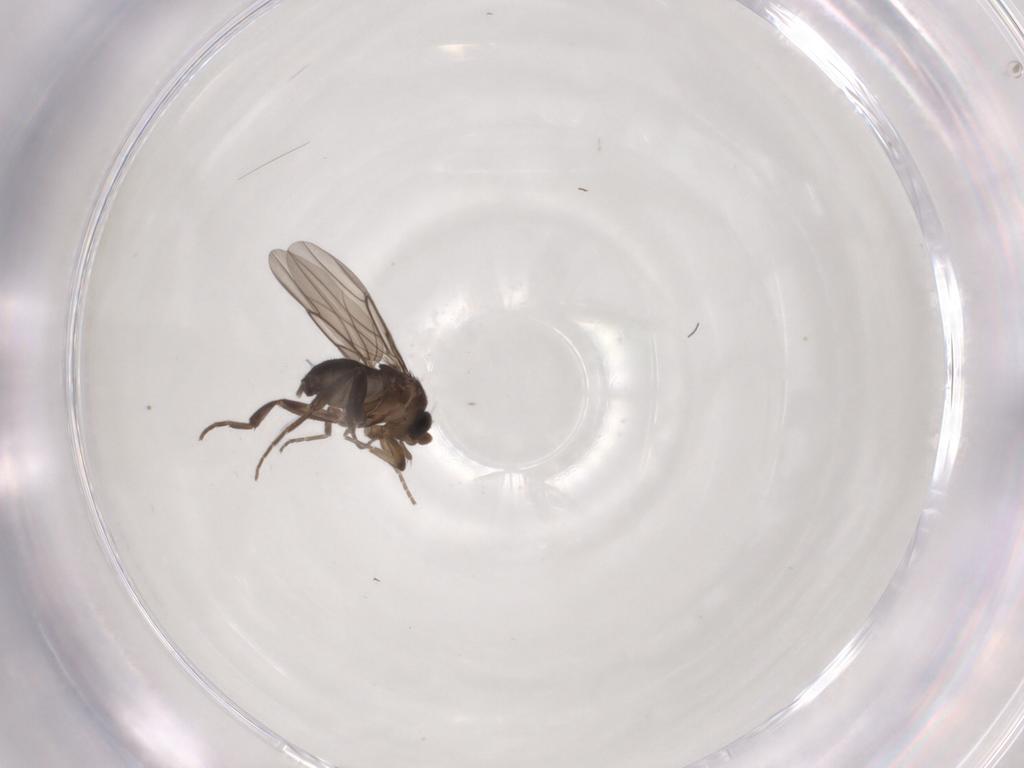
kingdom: Animalia
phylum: Arthropoda
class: Insecta
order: Diptera
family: Phoridae
